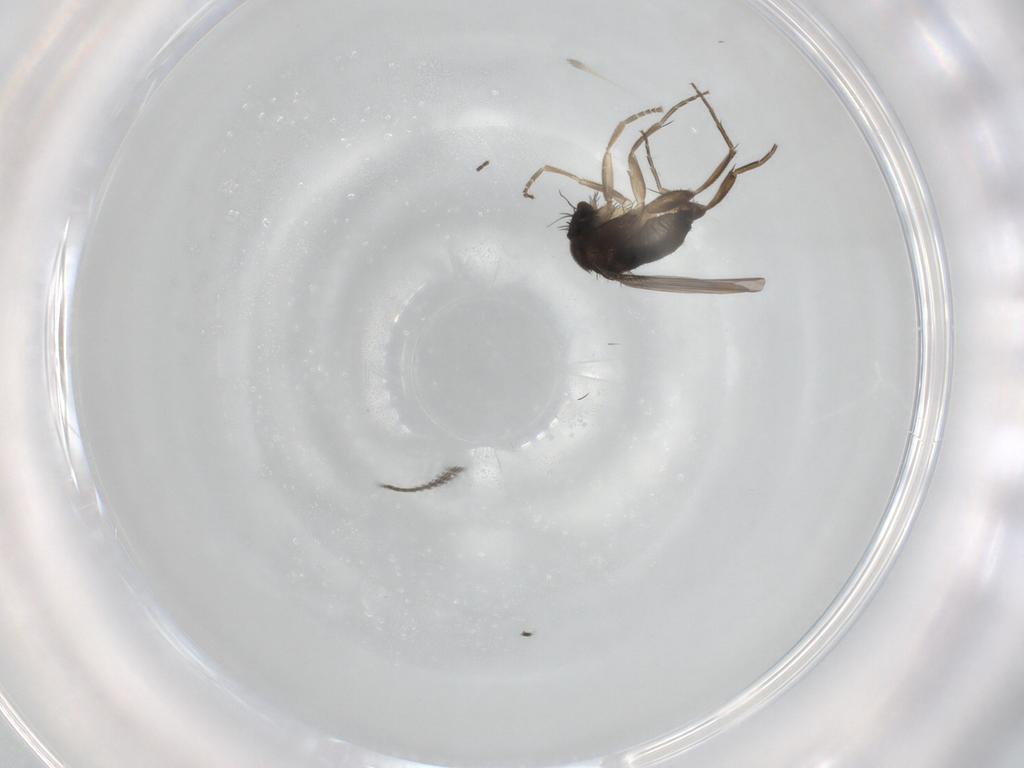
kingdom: Animalia
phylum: Arthropoda
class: Insecta
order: Diptera
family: Phoridae
